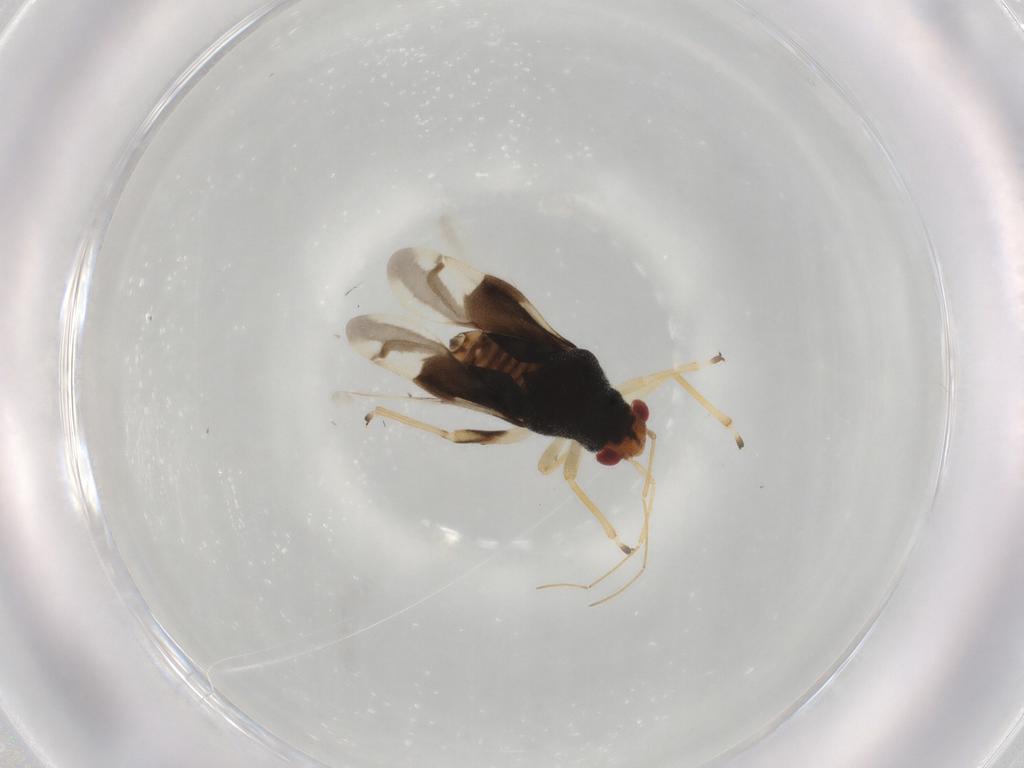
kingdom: Animalia
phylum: Arthropoda
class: Insecta
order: Hemiptera
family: Miridae
